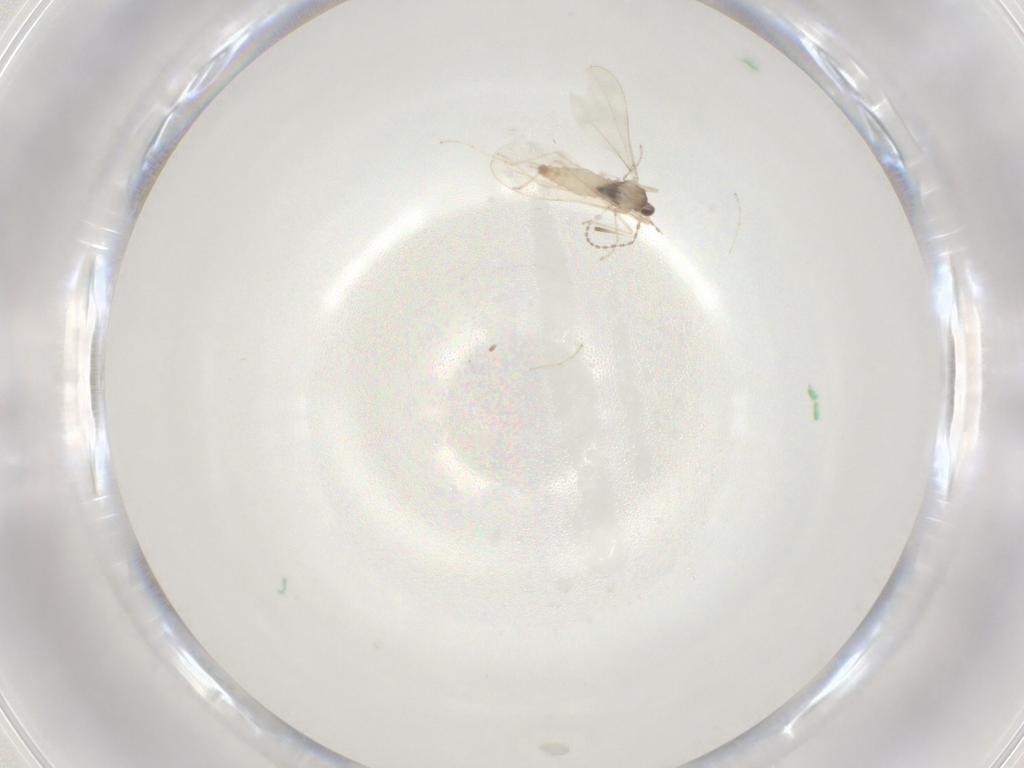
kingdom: Animalia
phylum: Arthropoda
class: Insecta
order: Diptera
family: Cecidomyiidae
